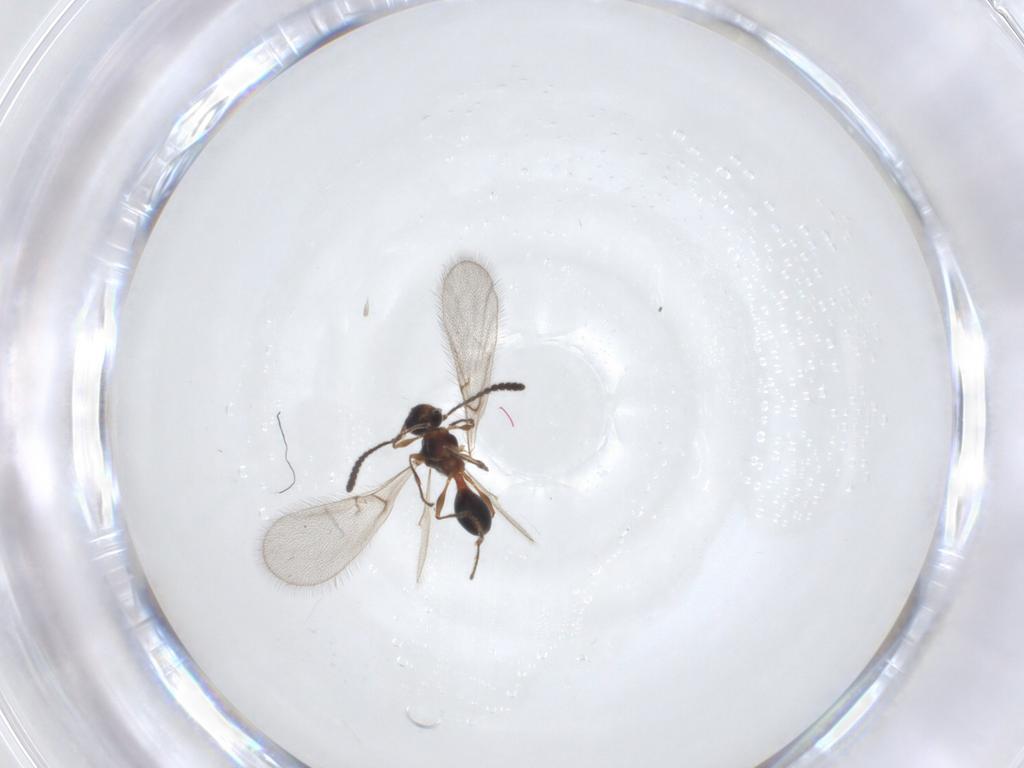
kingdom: Animalia
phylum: Arthropoda
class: Insecta
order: Hymenoptera
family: Diapriidae
